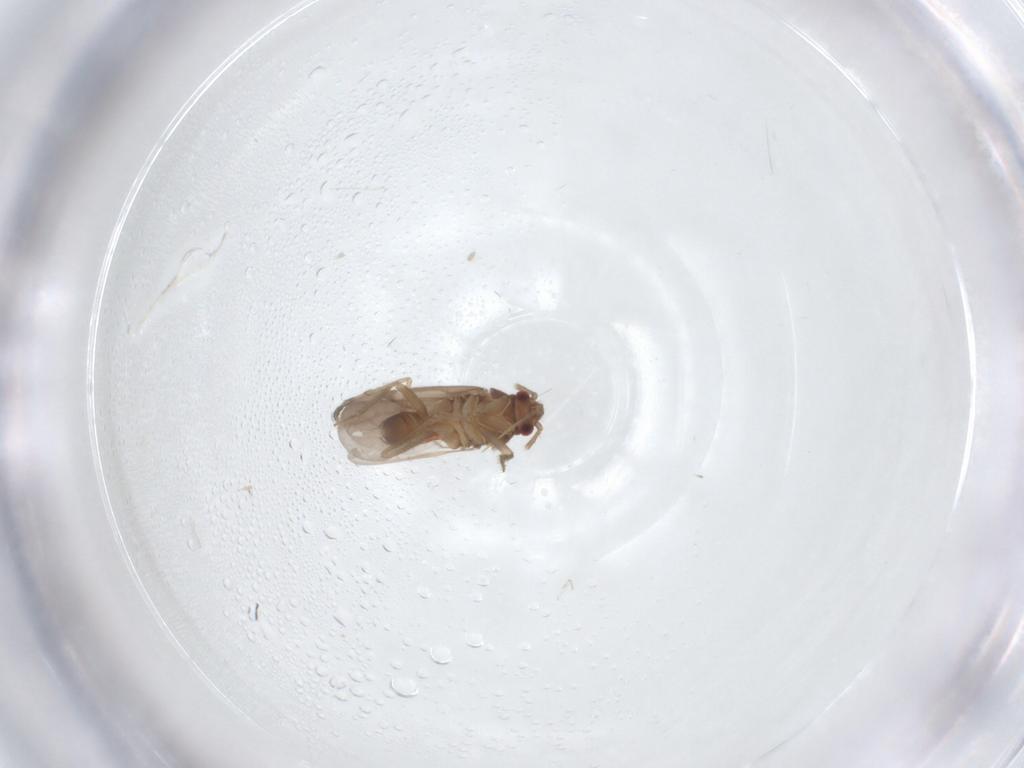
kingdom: Animalia
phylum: Arthropoda
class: Insecta
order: Hemiptera
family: Ceratocombidae
